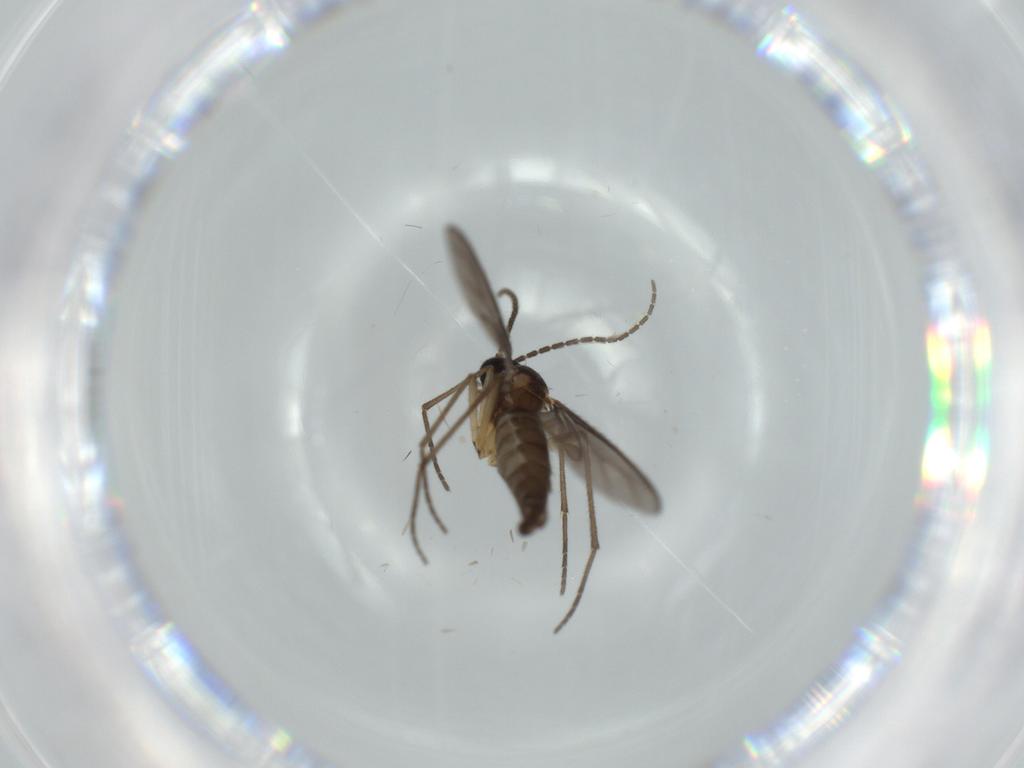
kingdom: Animalia
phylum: Arthropoda
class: Insecta
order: Diptera
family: Sciaridae
